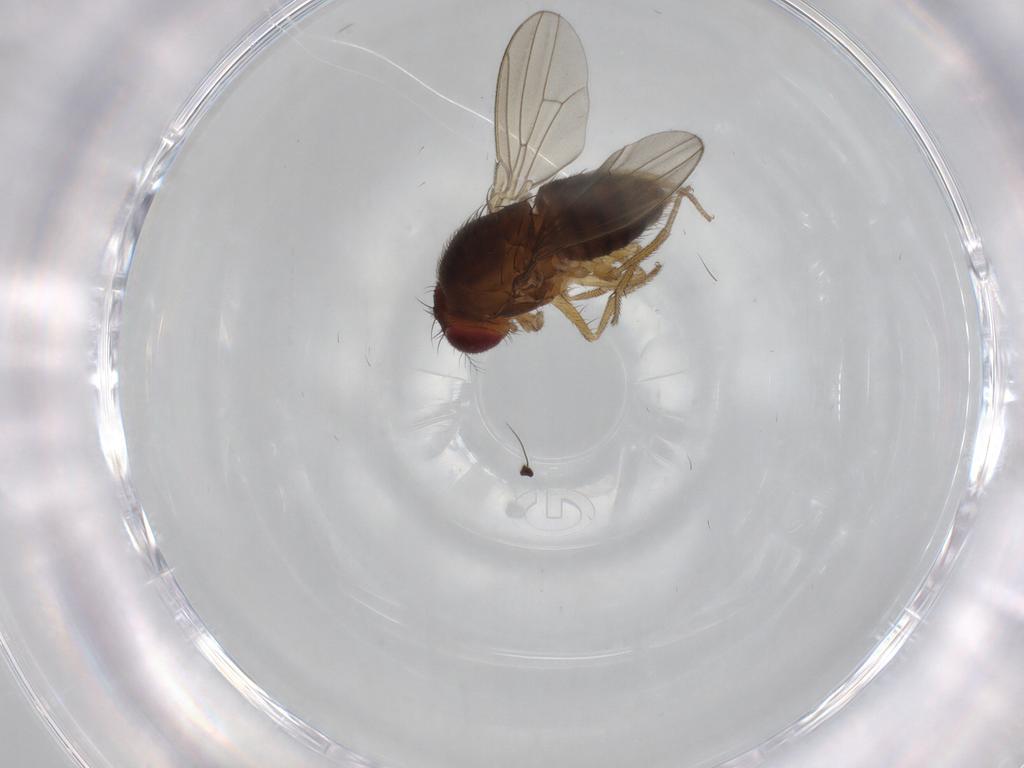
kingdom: Animalia
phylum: Arthropoda
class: Insecta
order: Diptera
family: Drosophilidae
